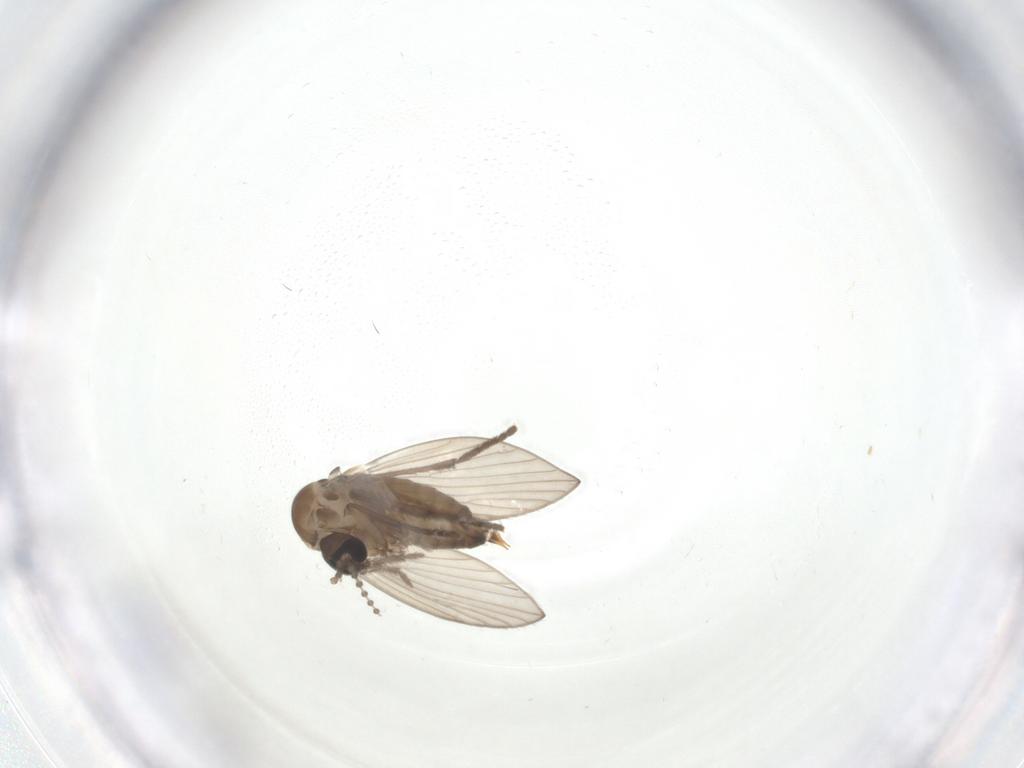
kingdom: Animalia
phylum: Arthropoda
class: Insecta
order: Diptera
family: Psychodidae
